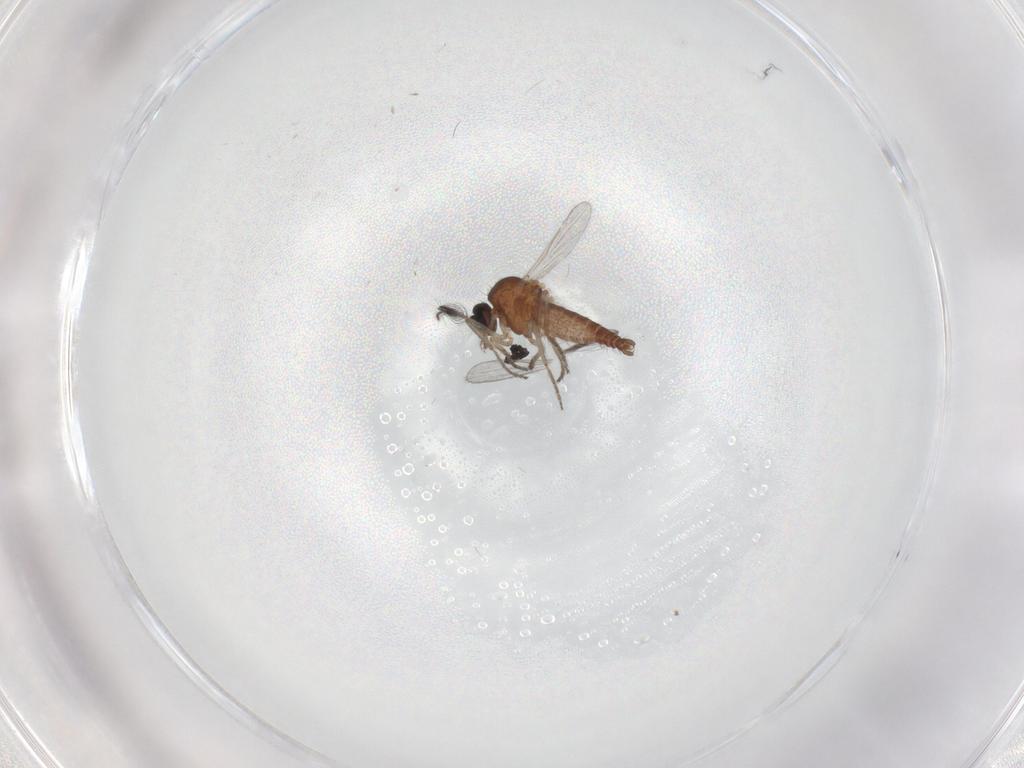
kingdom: Animalia
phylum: Arthropoda
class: Insecta
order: Diptera
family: Ceratopogonidae
